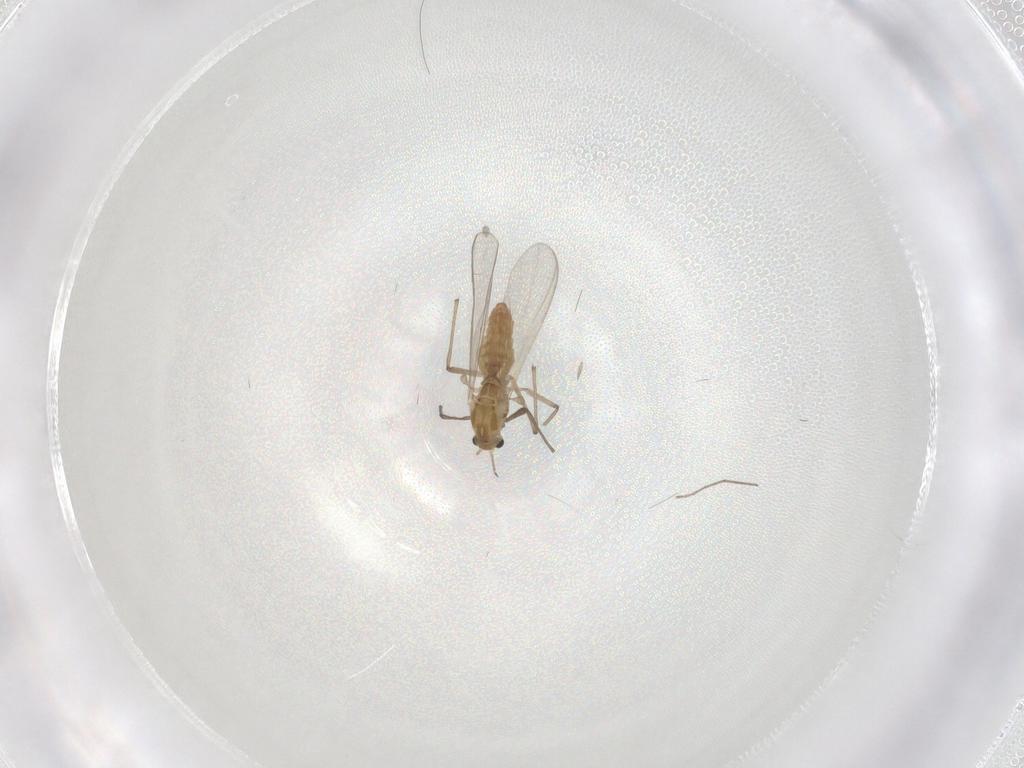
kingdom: Animalia
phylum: Arthropoda
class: Insecta
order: Diptera
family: Chironomidae
